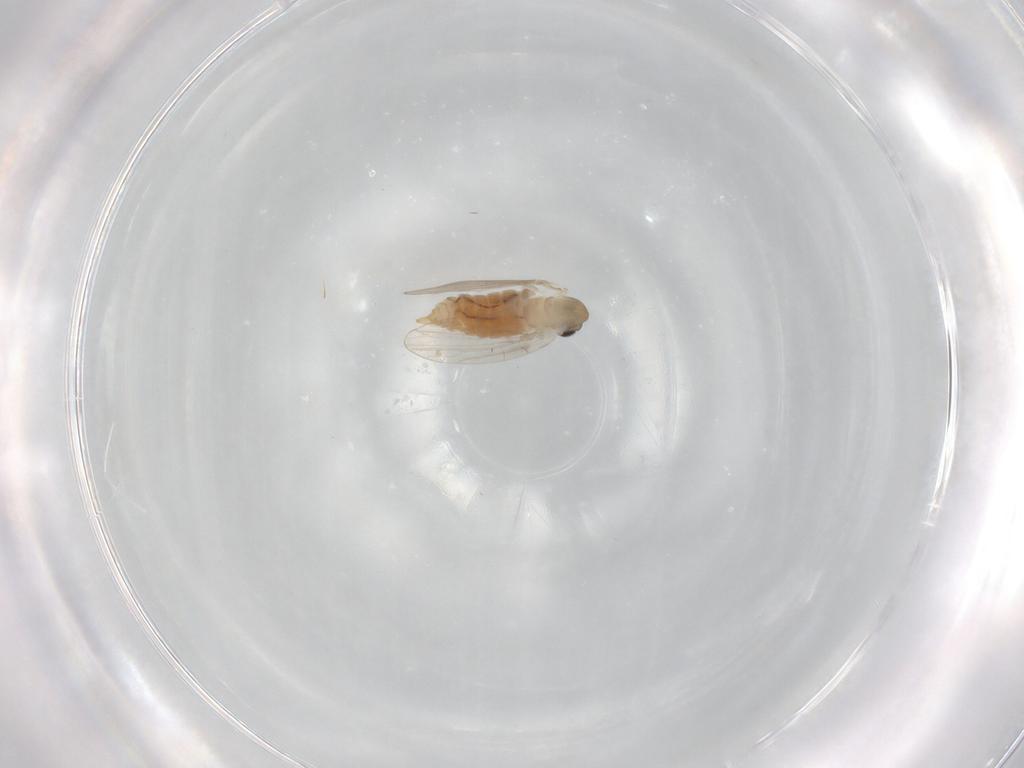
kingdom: Animalia
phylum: Arthropoda
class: Insecta
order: Diptera
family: Psychodidae
